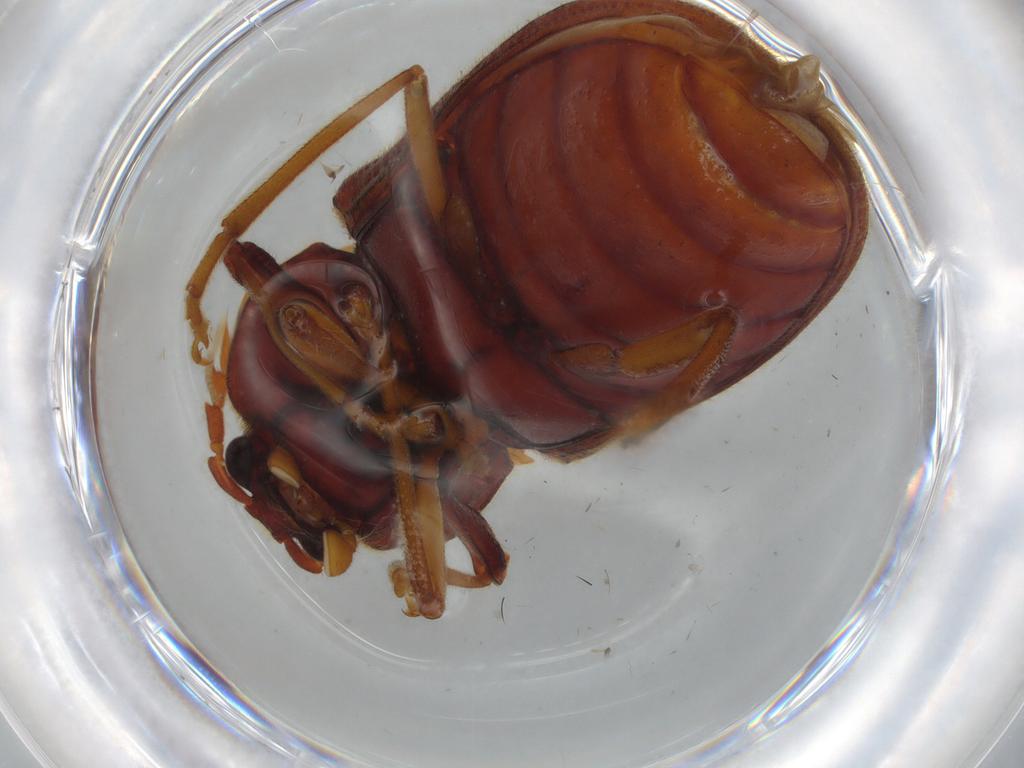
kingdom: Animalia
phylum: Arthropoda
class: Insecta
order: Coleoptera
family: Cerophytidae
